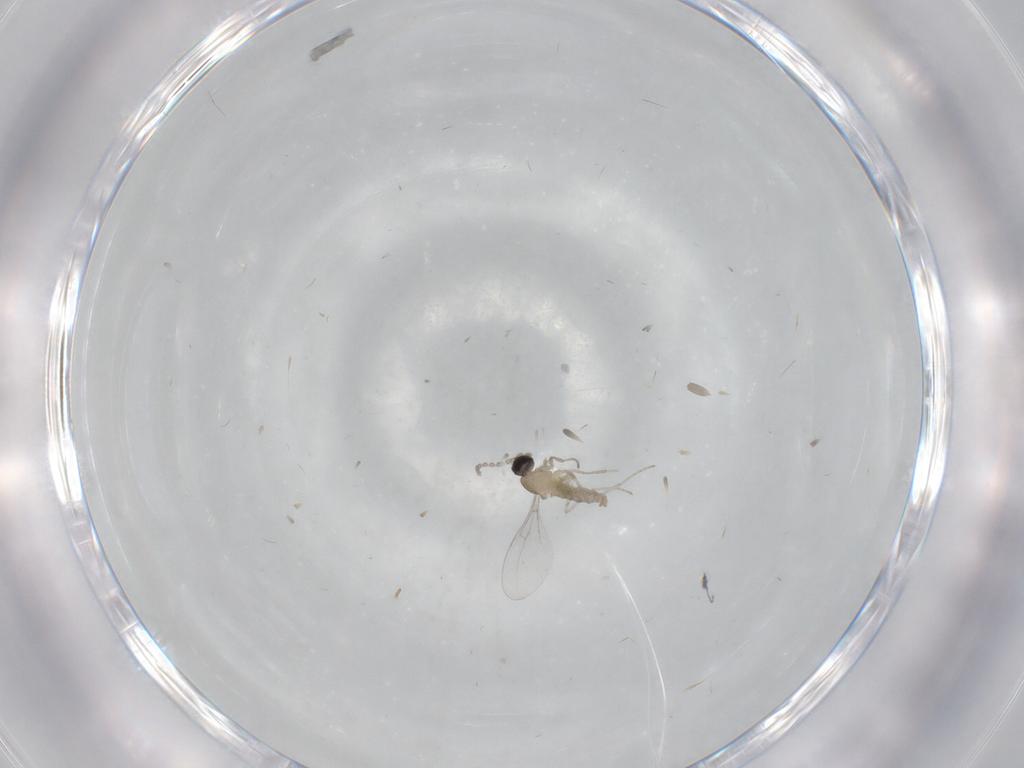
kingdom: Animalia
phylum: Arthropoda
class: Insecta
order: Diptera
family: Cecidomyiidae
